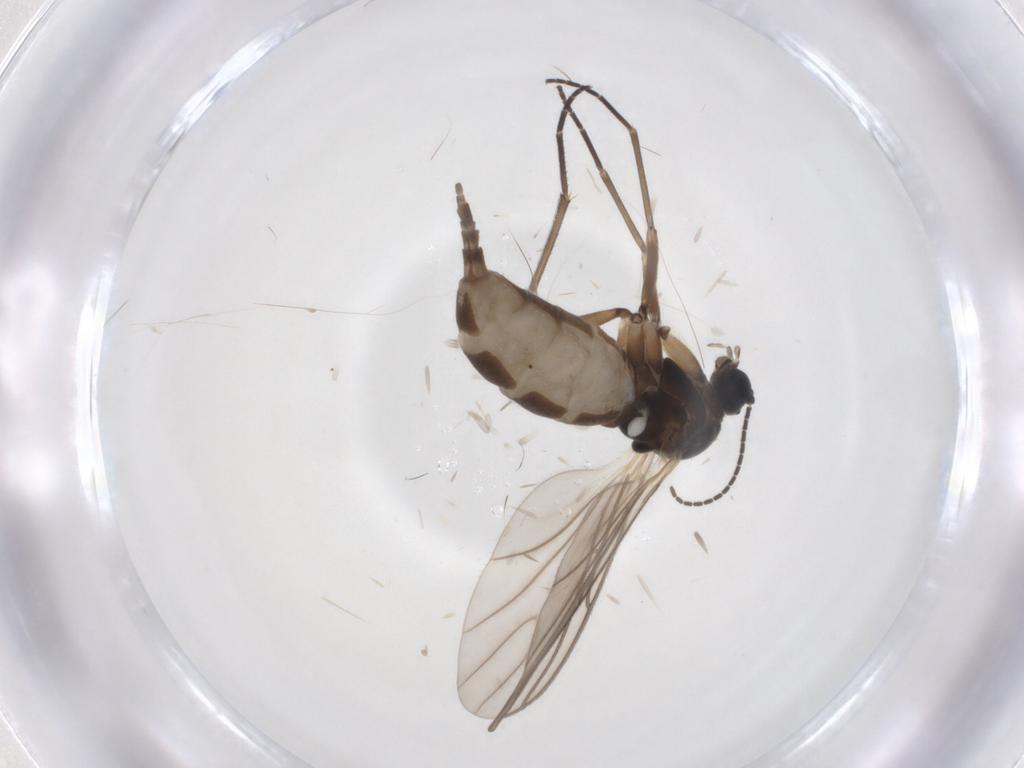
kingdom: Animalia
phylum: Arthropoda
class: Insecta
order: Diptera
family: Sciaridae
